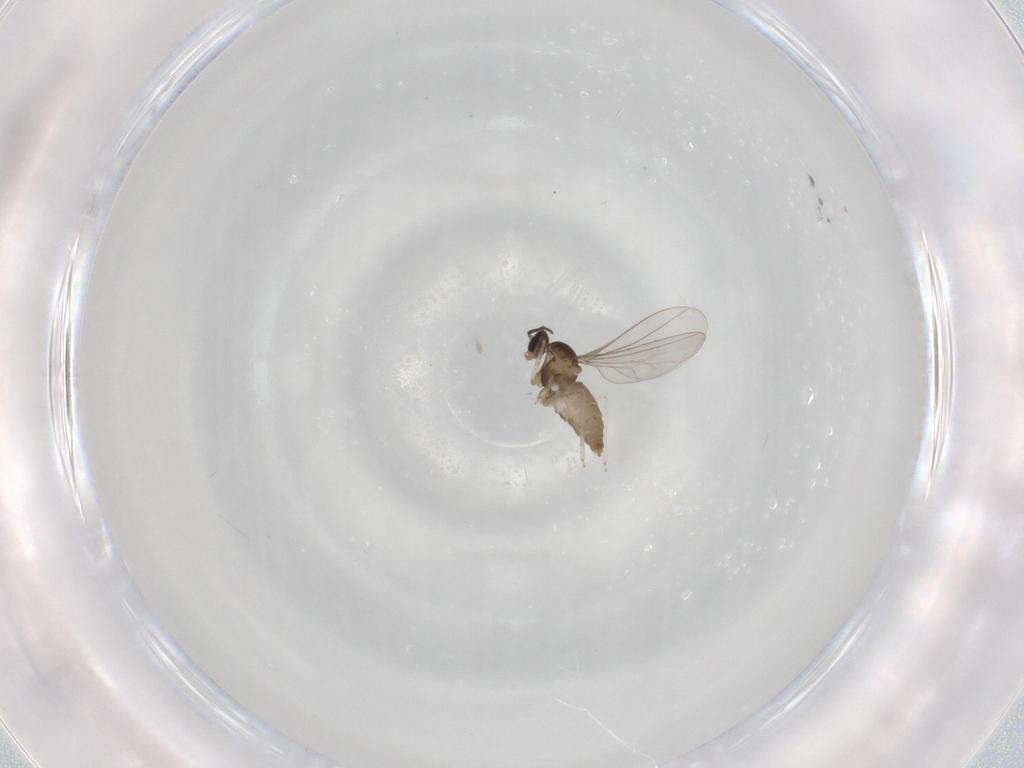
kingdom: Animalia
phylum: Arthropoda
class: Insecta
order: Diptera
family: Cecidomyiidae
